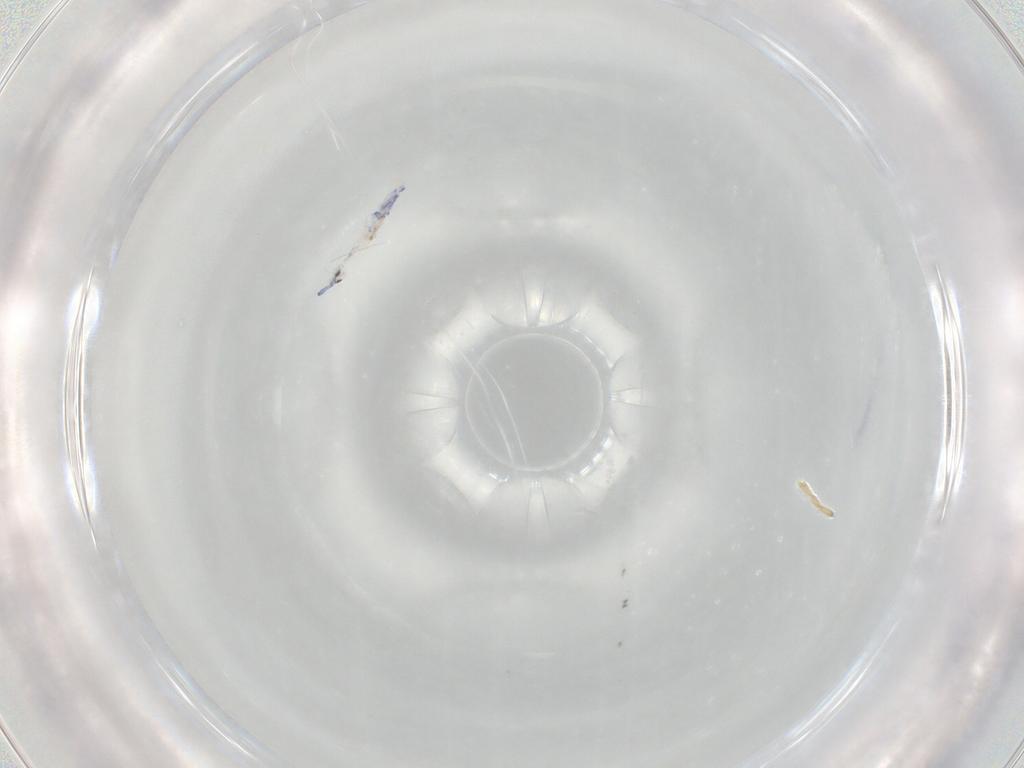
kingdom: Animalia
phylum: Arthropoda
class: Collembola
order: Entomobryomorpha
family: Entomobryidae
